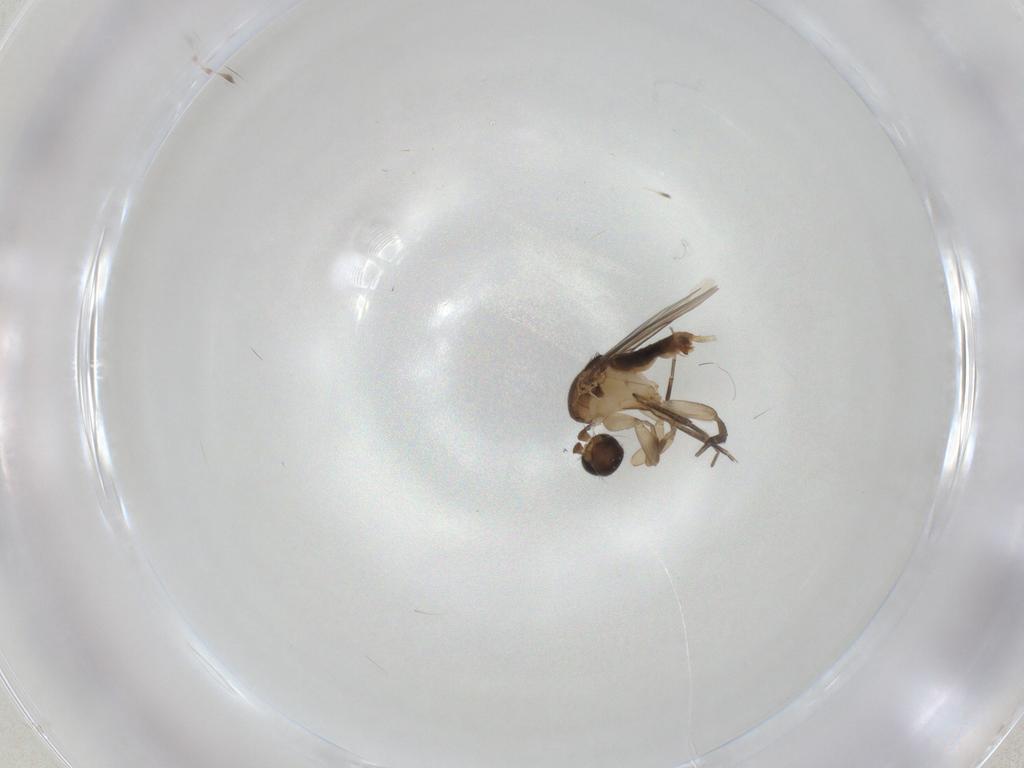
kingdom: Animalia
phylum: Arthropoda
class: Insecta
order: Diptera
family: Phoridae
